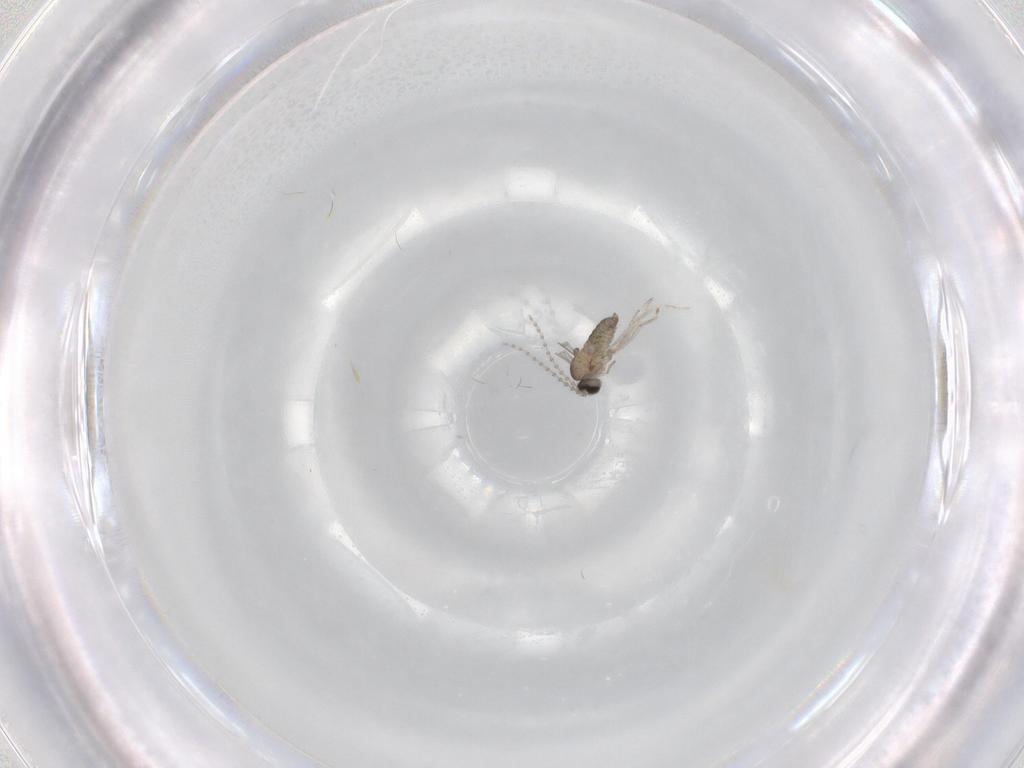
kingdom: Animalia
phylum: Arthropoda
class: Insecta
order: Diptera
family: Cecidomyiidae
